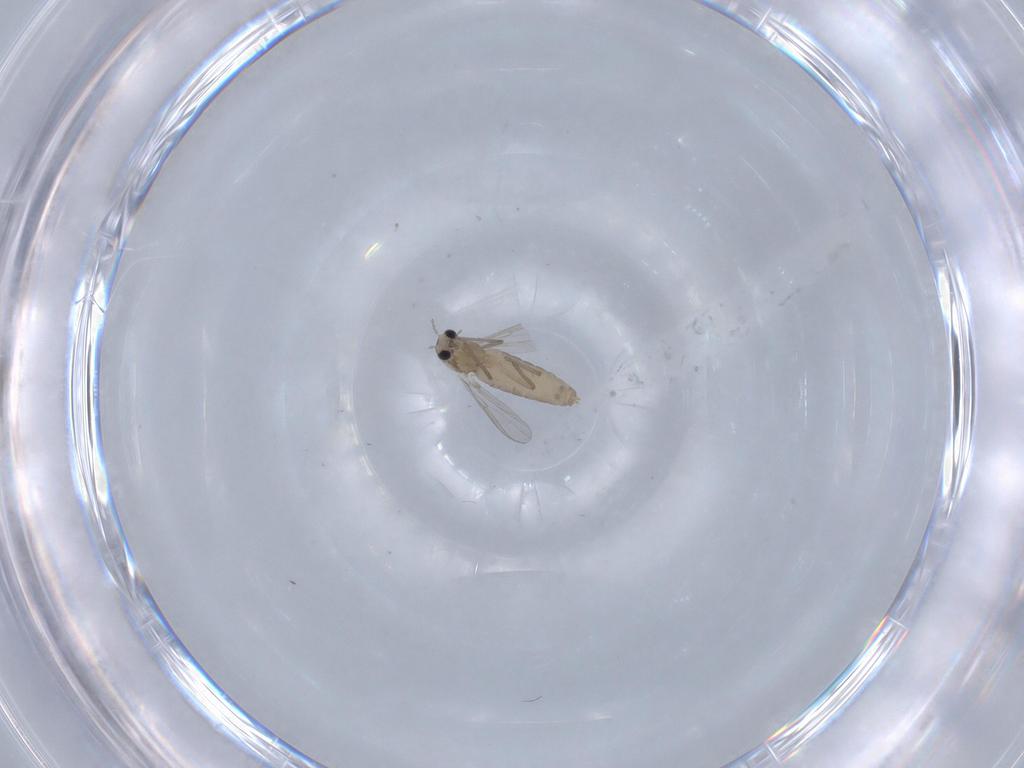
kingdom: Animalia
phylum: Arthropoda
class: Insecta
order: Diptera
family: Chironomidae
